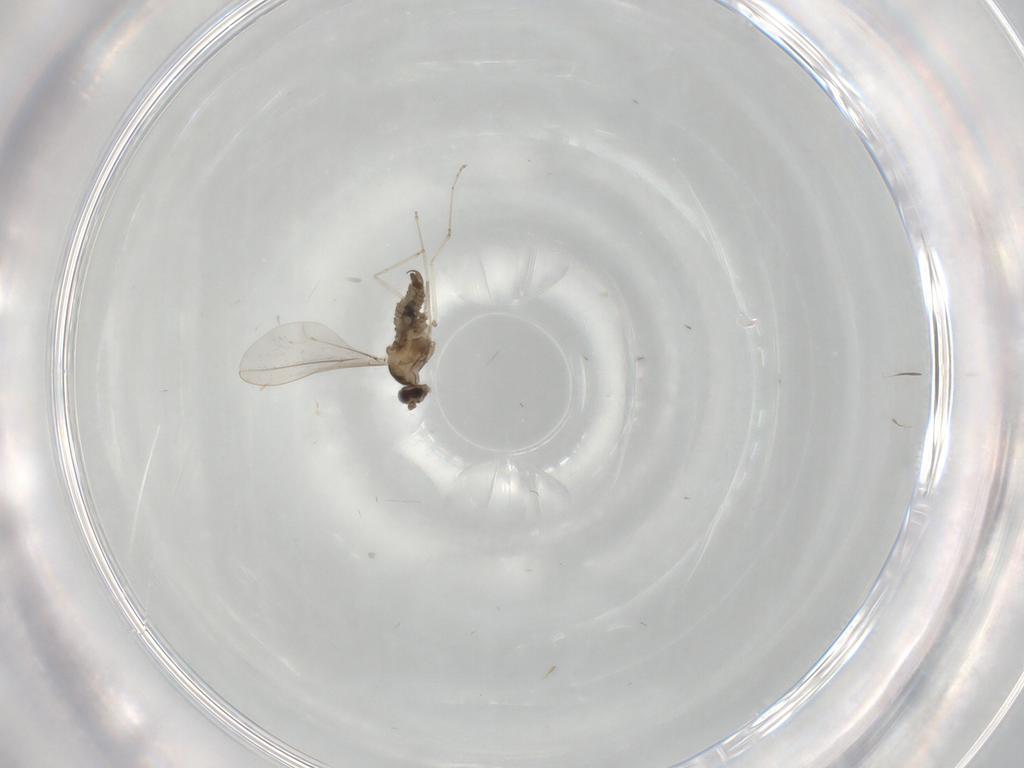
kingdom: Animalia
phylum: Arthropoda
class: Insecta
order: Diptera
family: Cecidomyiidae
